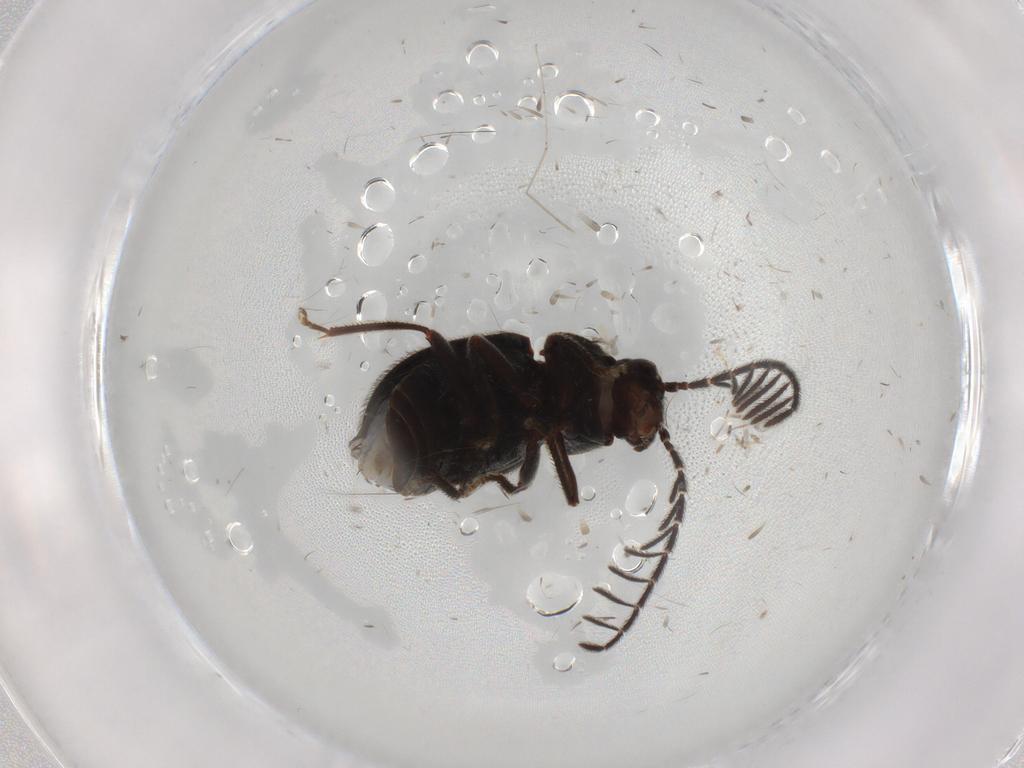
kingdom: Animalia
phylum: Arthropoda
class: Insecta
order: Coleoptera
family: Ptilodactylidae
